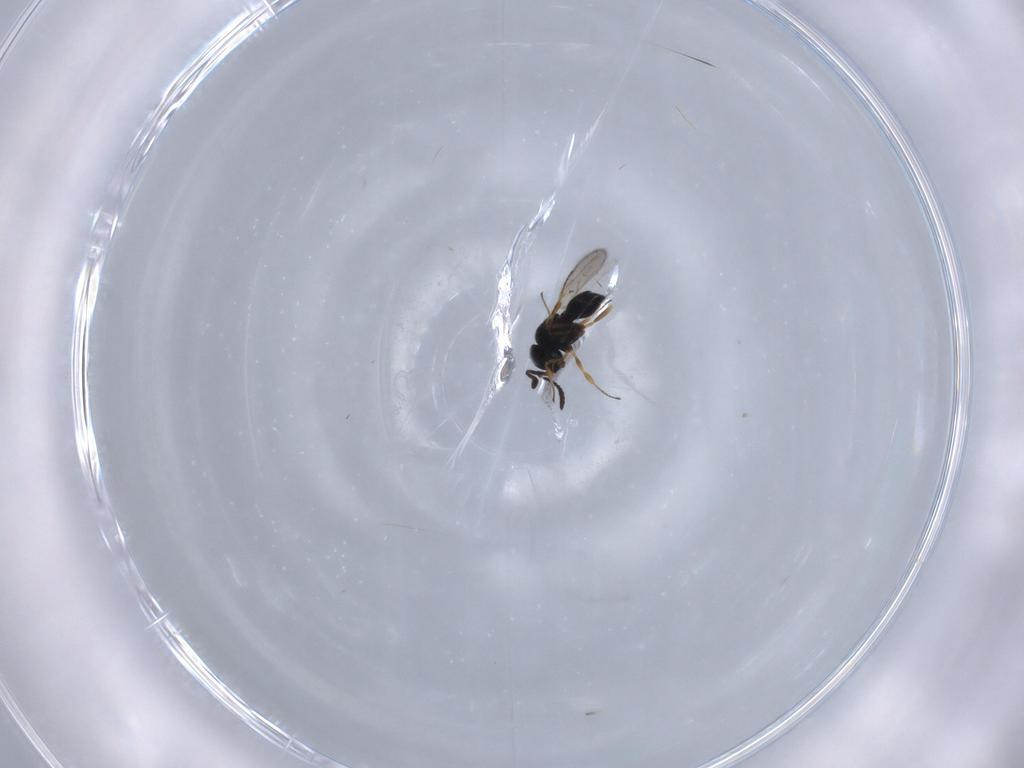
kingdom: Animalia
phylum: Arthropoda
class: Insecta
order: Hymenoptera
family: Scelionidae
